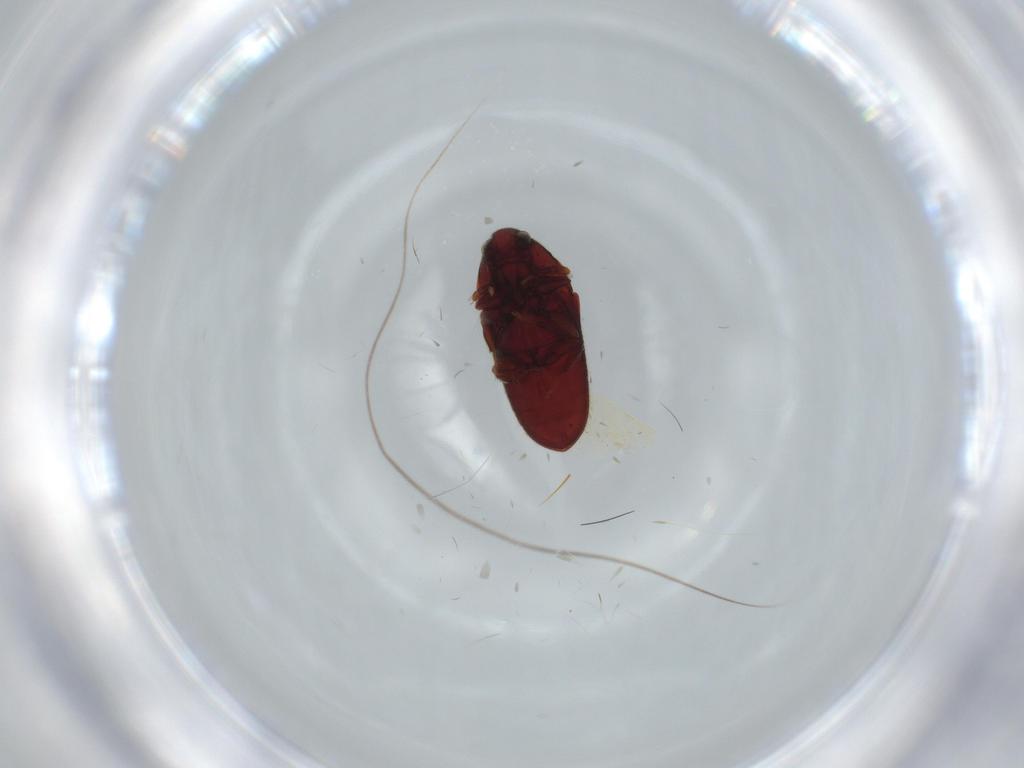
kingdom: Animalia
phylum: Arthropoda
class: Insecta
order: Coleoptera
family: Throscidae
